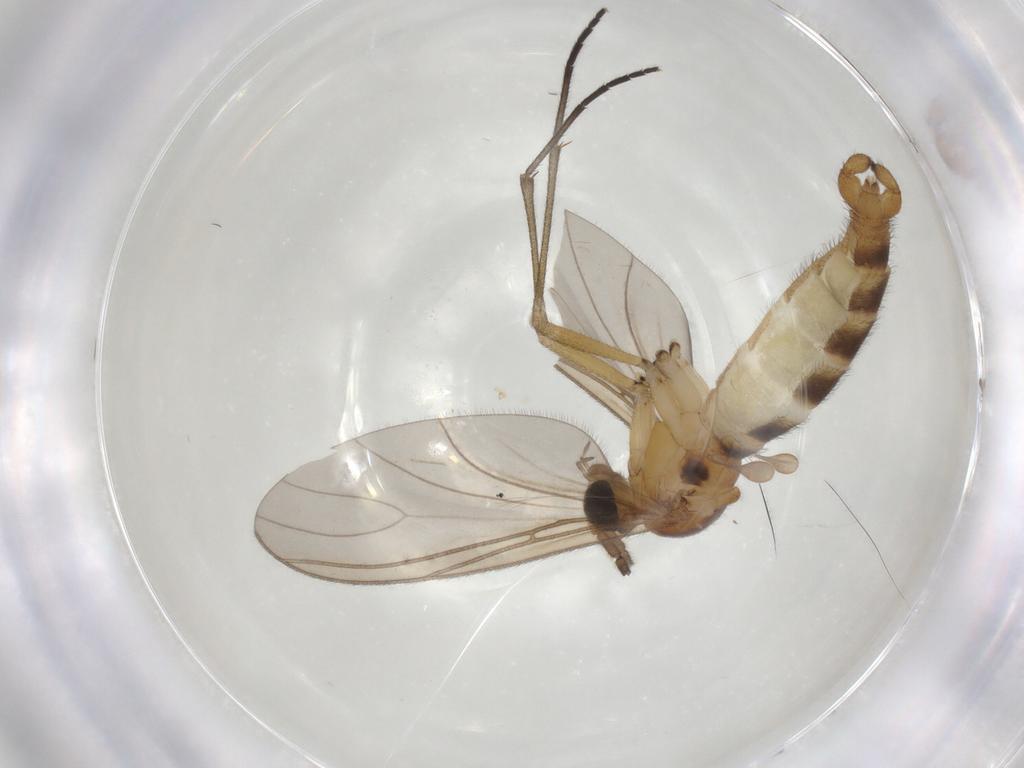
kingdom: Animalia
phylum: Arthropoda
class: Insecta
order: Diptera
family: Sciaridae
